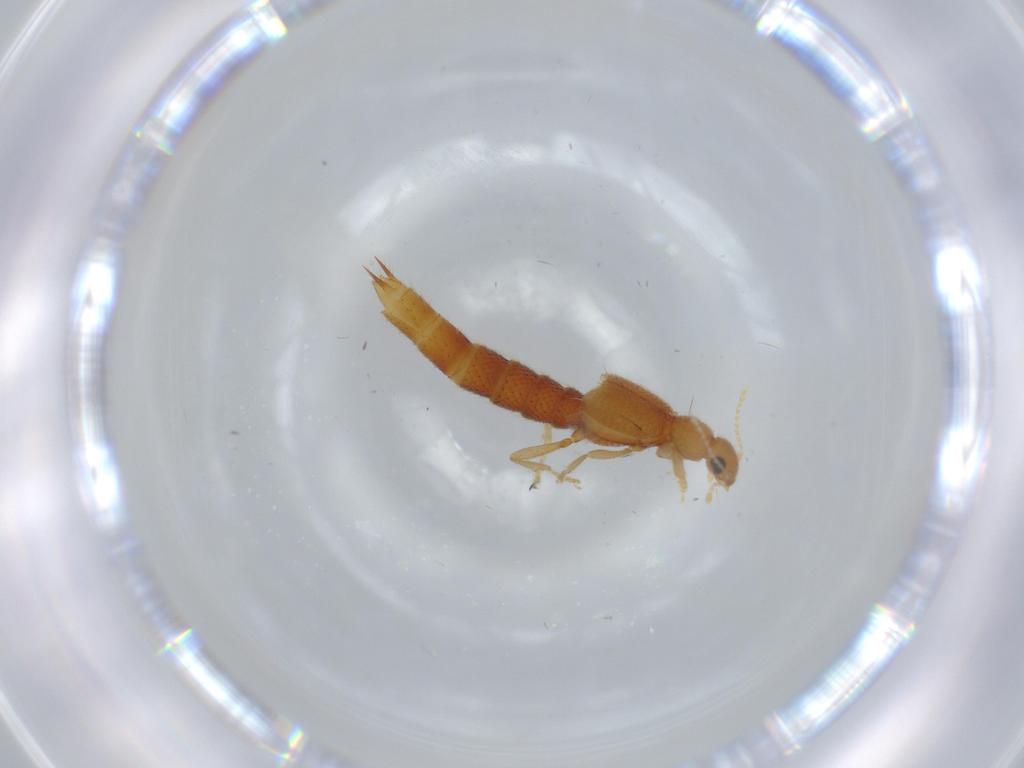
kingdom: Animalia
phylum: Arthropoda
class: Insecta
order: Coleoptera
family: Staphylinidae
